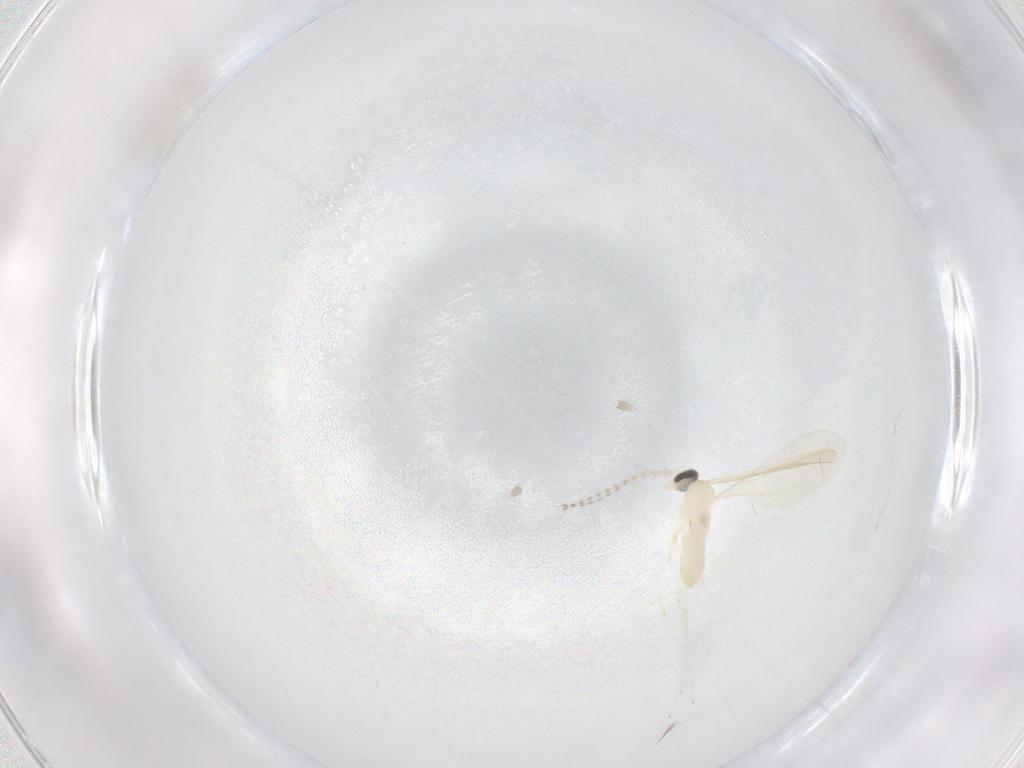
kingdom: Animalia
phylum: Arthropoda
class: Insecta
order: Diptera
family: Cecidomyiidae
